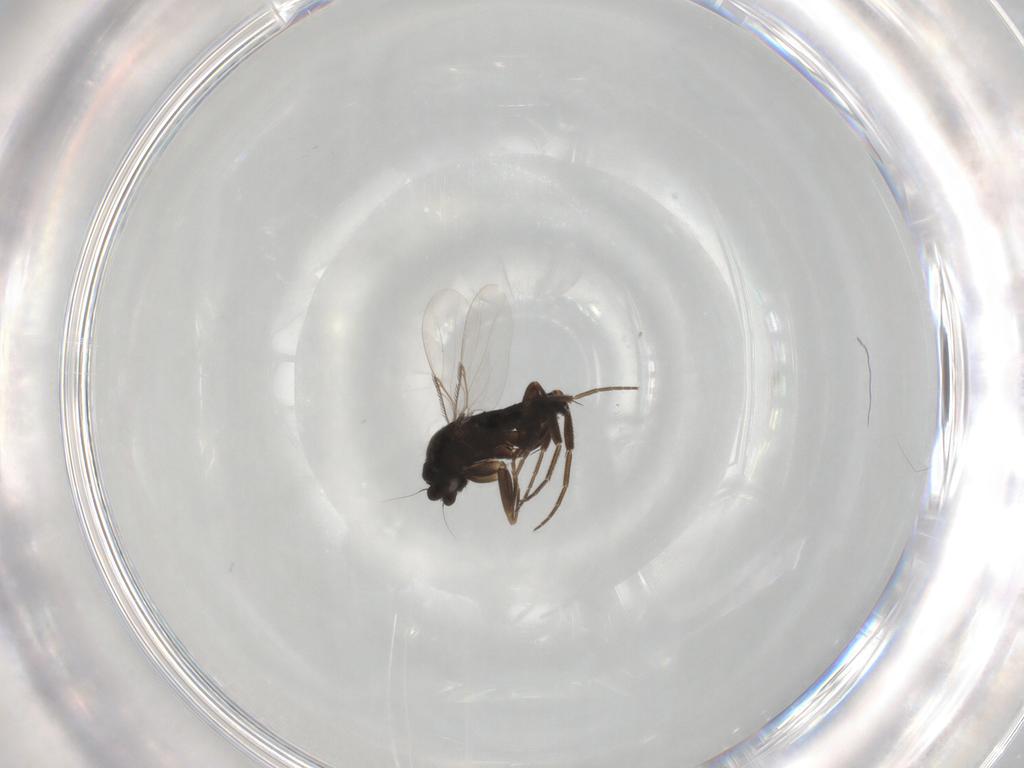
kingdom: Animalia
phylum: Arthropoda
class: Insecta
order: Diptera
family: Phoridae
